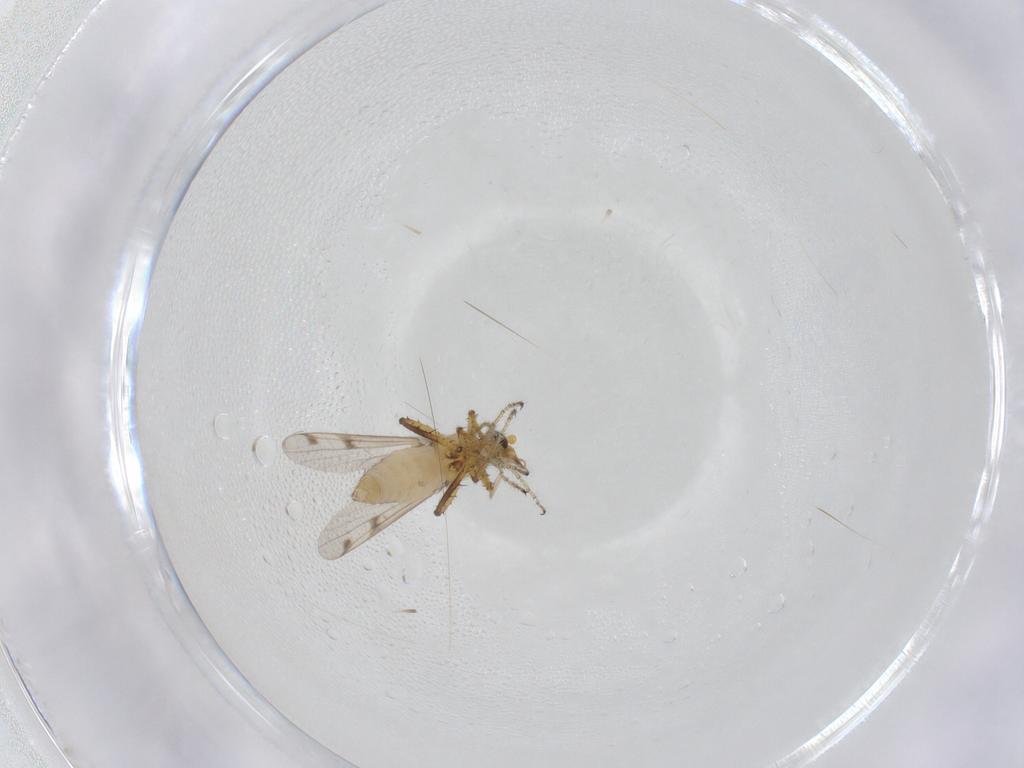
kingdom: Animalia
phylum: Arthropoda
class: Insecta
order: Diptera
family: Ceratopogonidae
